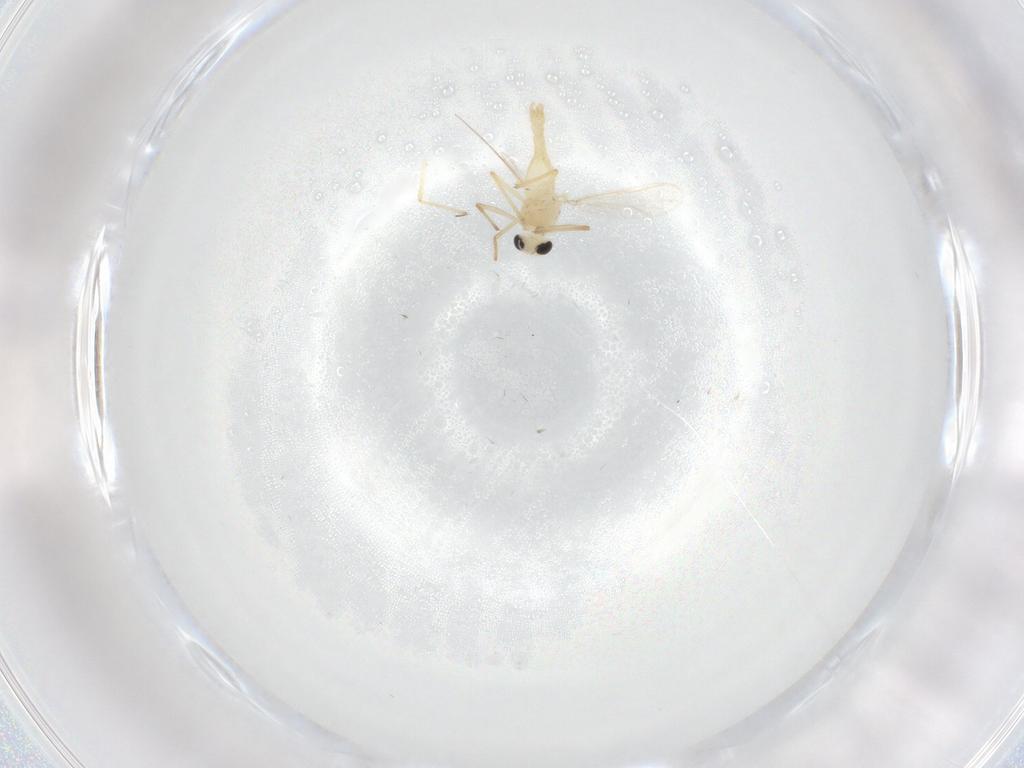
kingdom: Animalia
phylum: Arthropoda
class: Insecta
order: Diptera
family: Chironomidae
